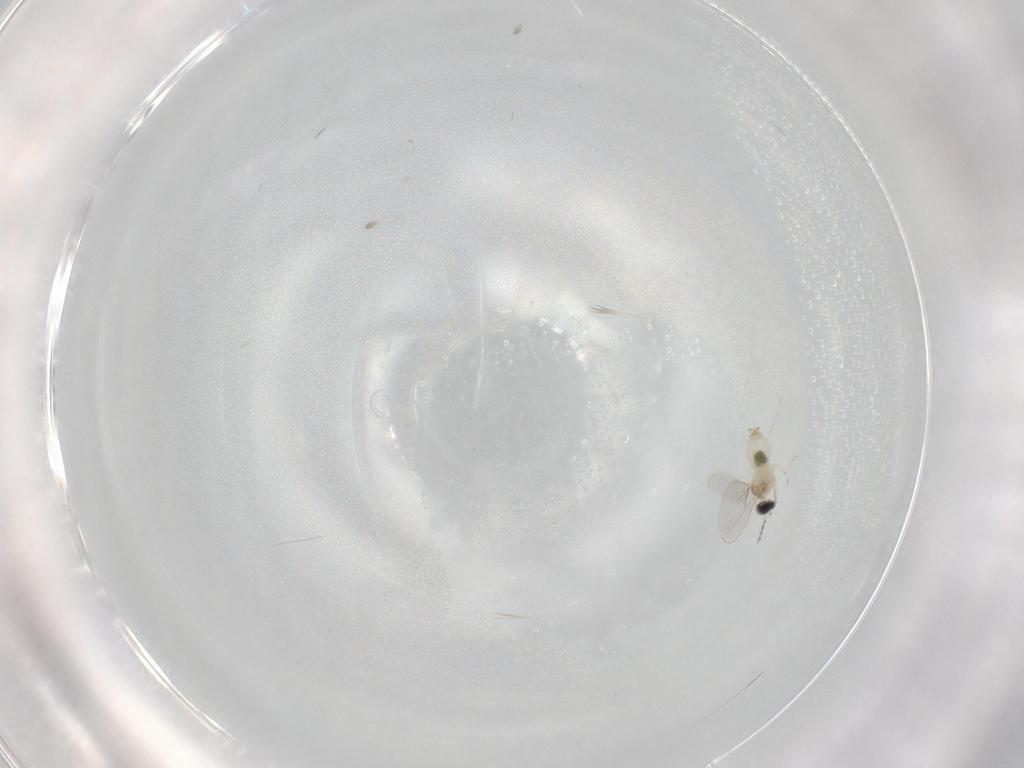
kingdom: Animalia
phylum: Arthropoda
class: Insecta
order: Diptera
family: Cecidomyiidae
